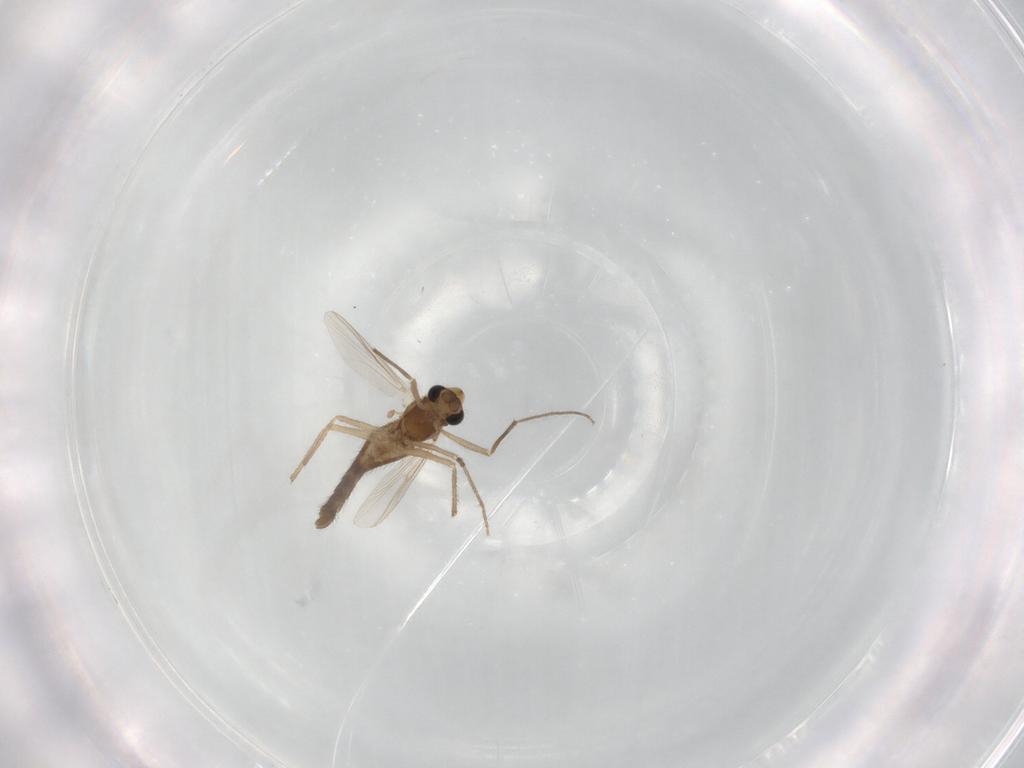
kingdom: Animalia
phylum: Arthropoda
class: Insecta
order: Diptera
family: Chironomidae
